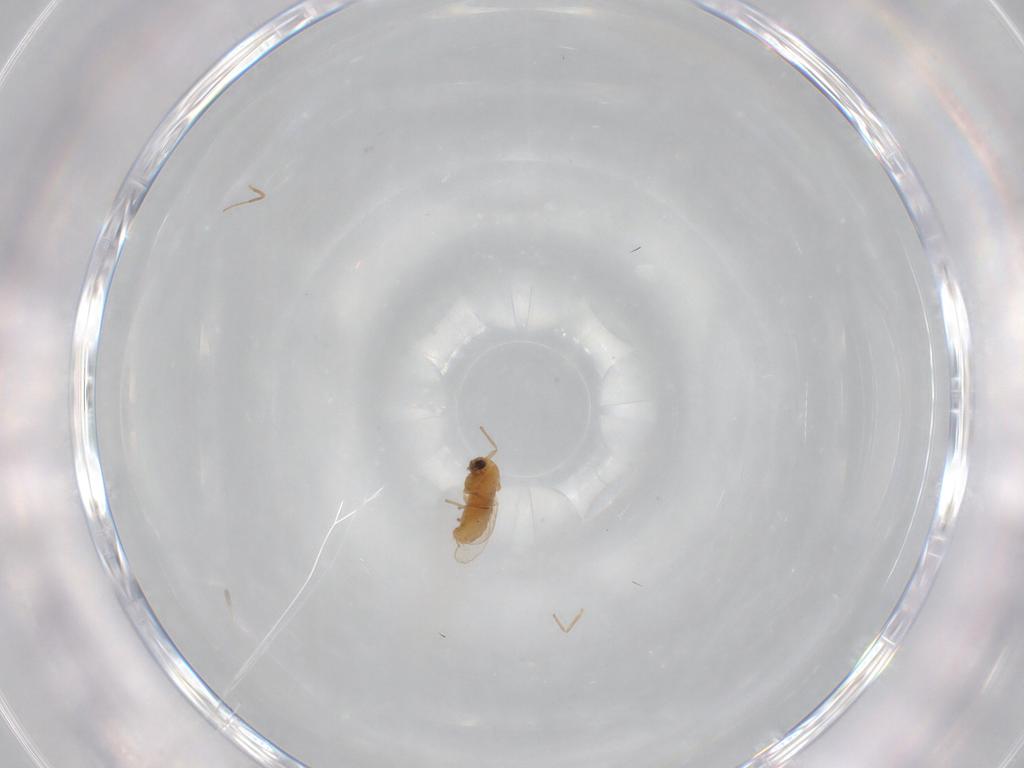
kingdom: Animalia
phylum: Arthropoda
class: Insecta
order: Diptera
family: Chironomidae
